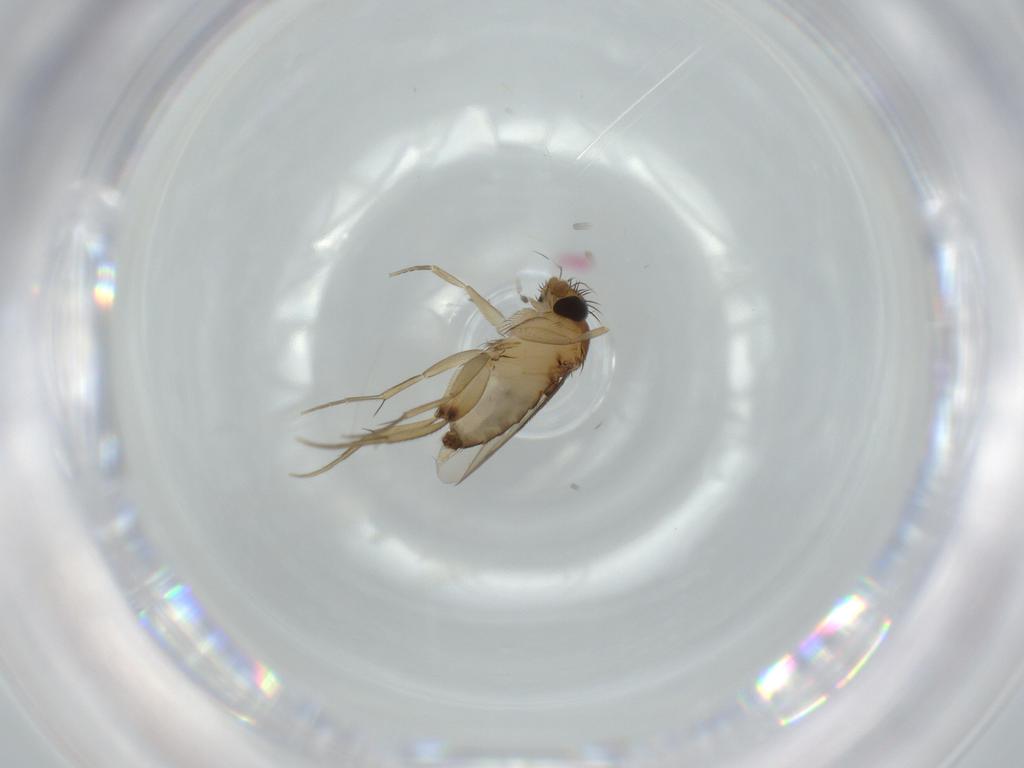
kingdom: Animalia
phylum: Arthropoda
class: Insecta
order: Diptera
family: Phoridae
